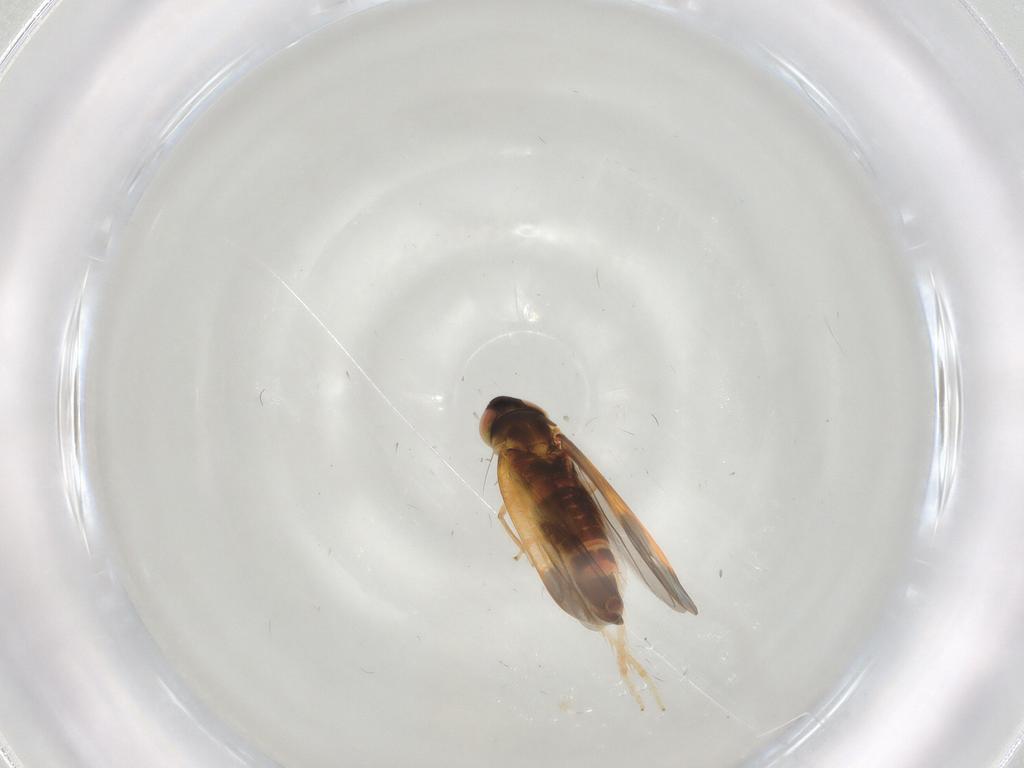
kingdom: Animalia
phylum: Arthropoda
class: Insecta
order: Hemiptera
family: Cicadellidae
